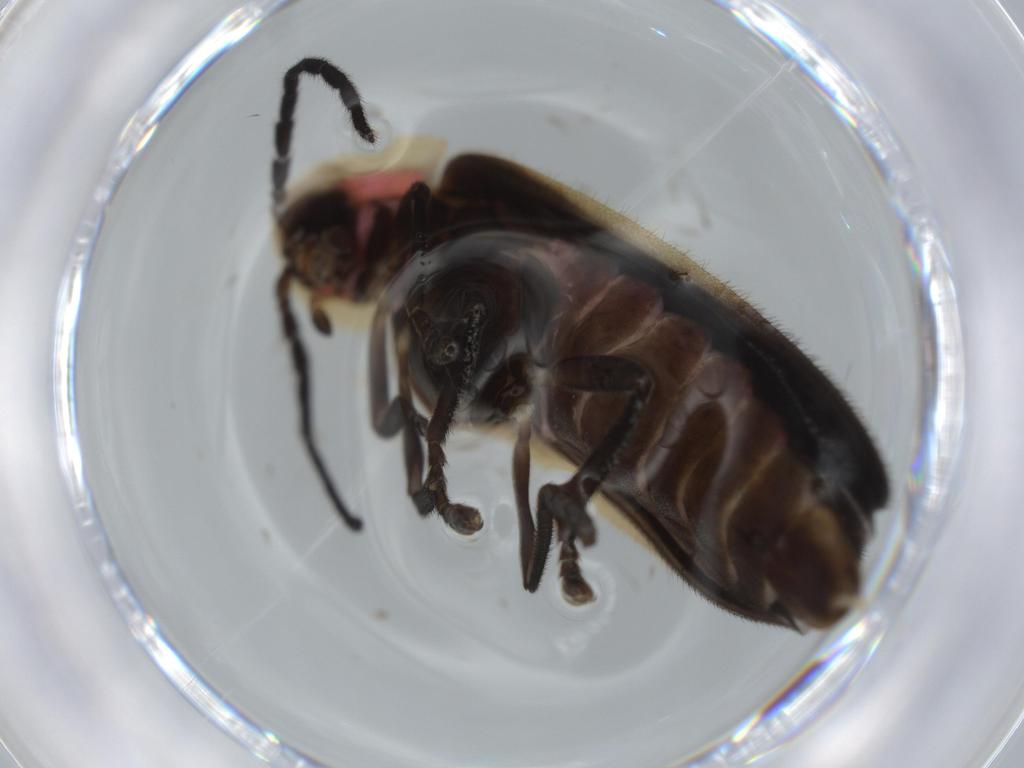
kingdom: Animalia
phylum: Arthropoda
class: Insecta
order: Coleoptera
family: Lampyridae
